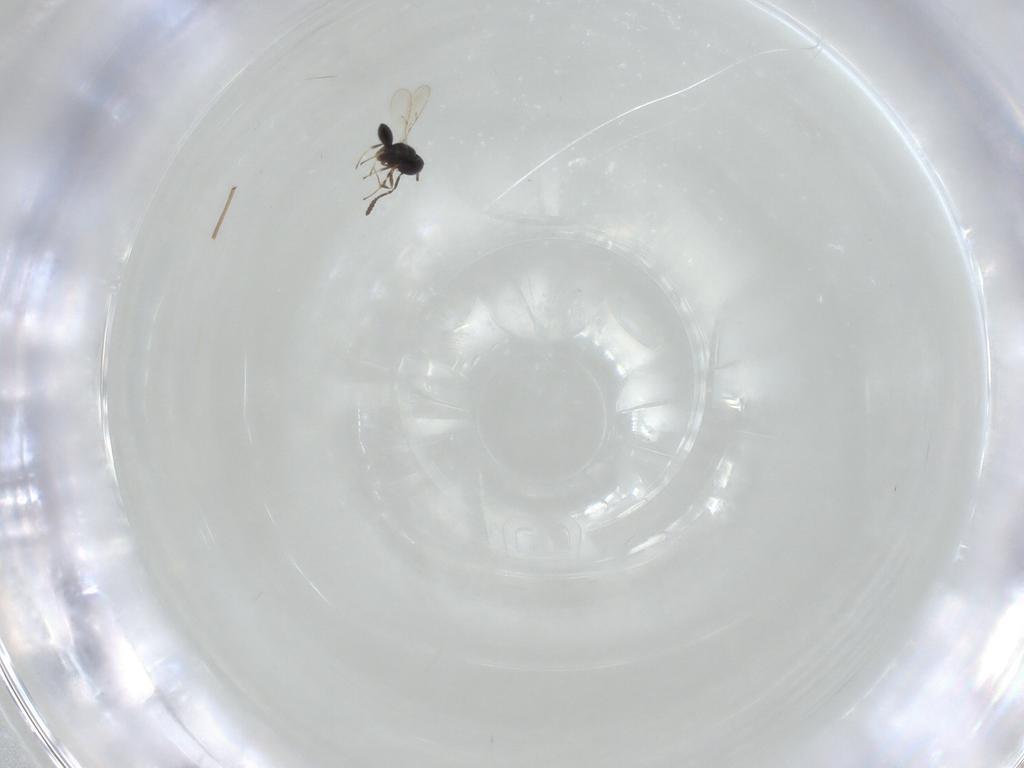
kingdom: Animalia
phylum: Arthropoda
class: Insecta
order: Hymenoptera
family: Scelionidae
